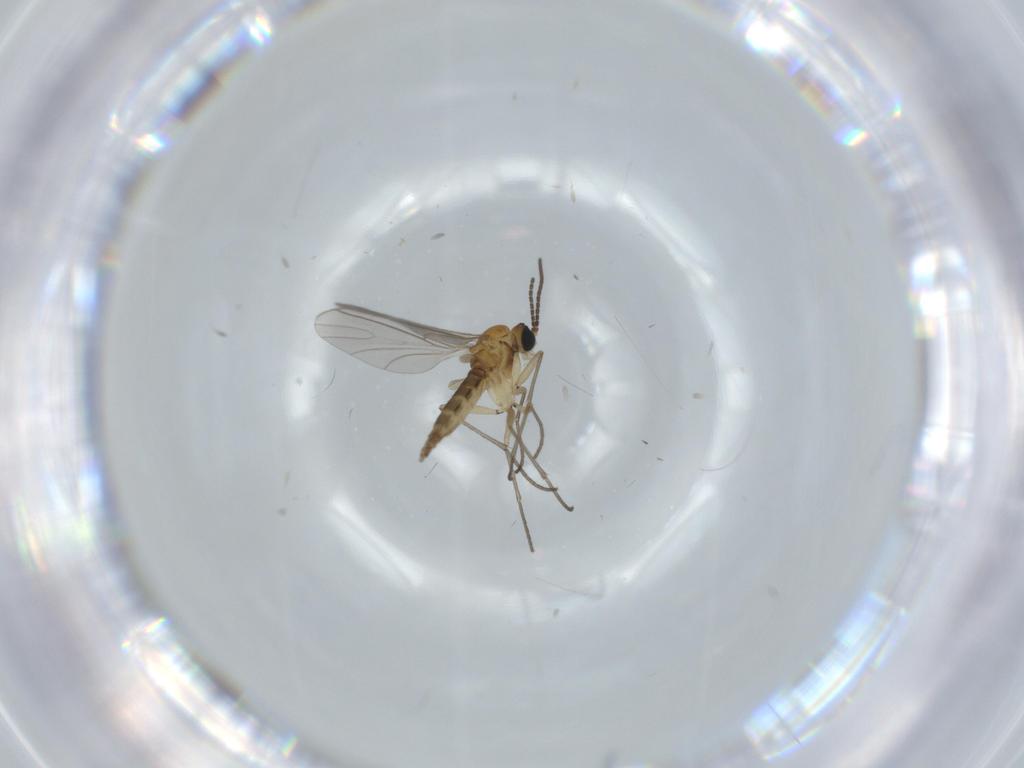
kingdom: Animalia
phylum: Arthropoda
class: Insecta
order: Diptera
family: Sciaridae
